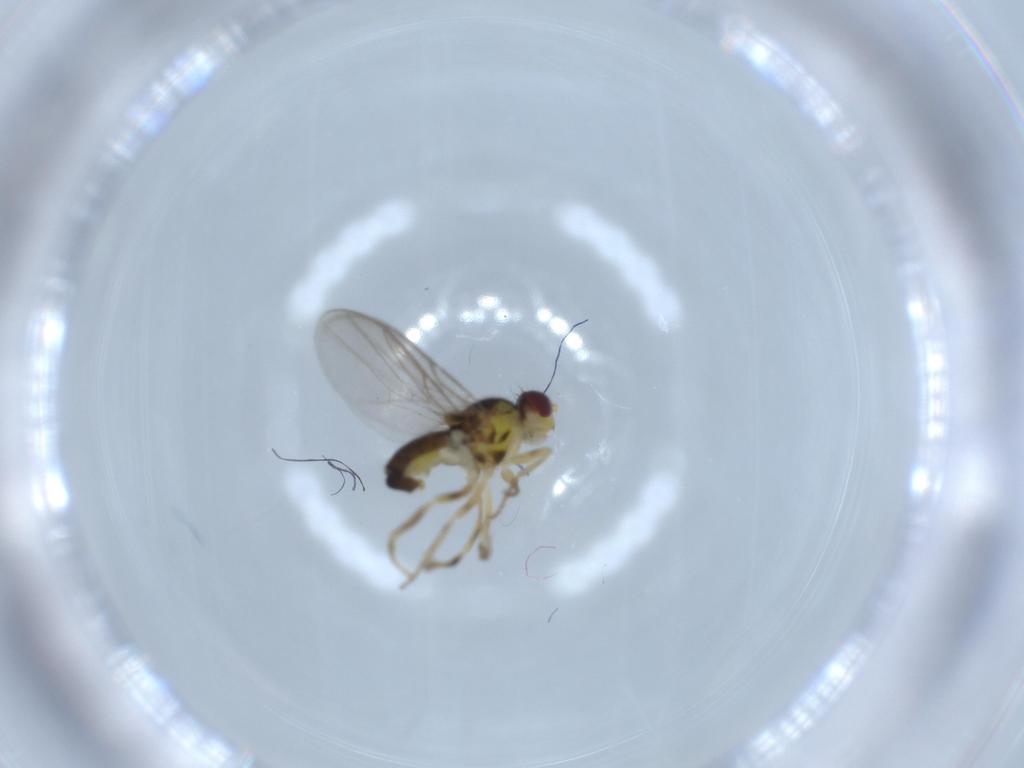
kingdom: Animalia
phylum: Arthropoda
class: Insecta
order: Diptera
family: Chloropidae
